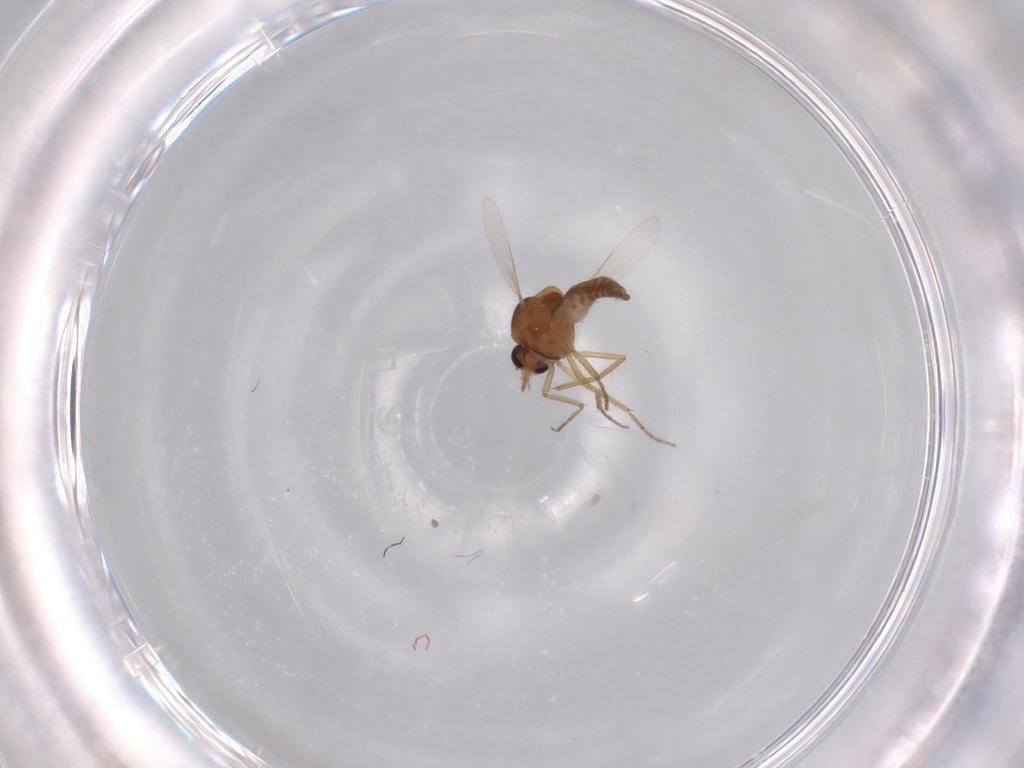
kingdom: Animalia
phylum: Arthropoda
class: Insecta
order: Diptera
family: Ceratopogonidae
